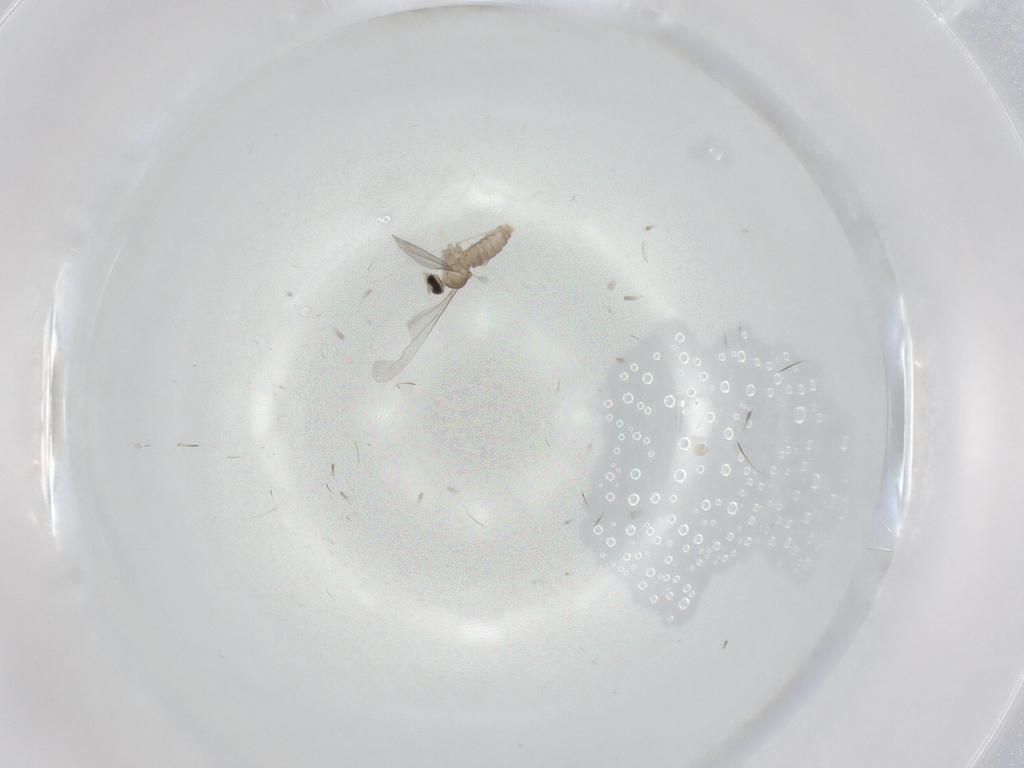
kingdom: Animalia
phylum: Arthropoda
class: Insecta
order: Diptera
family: Cecidomyiidae
